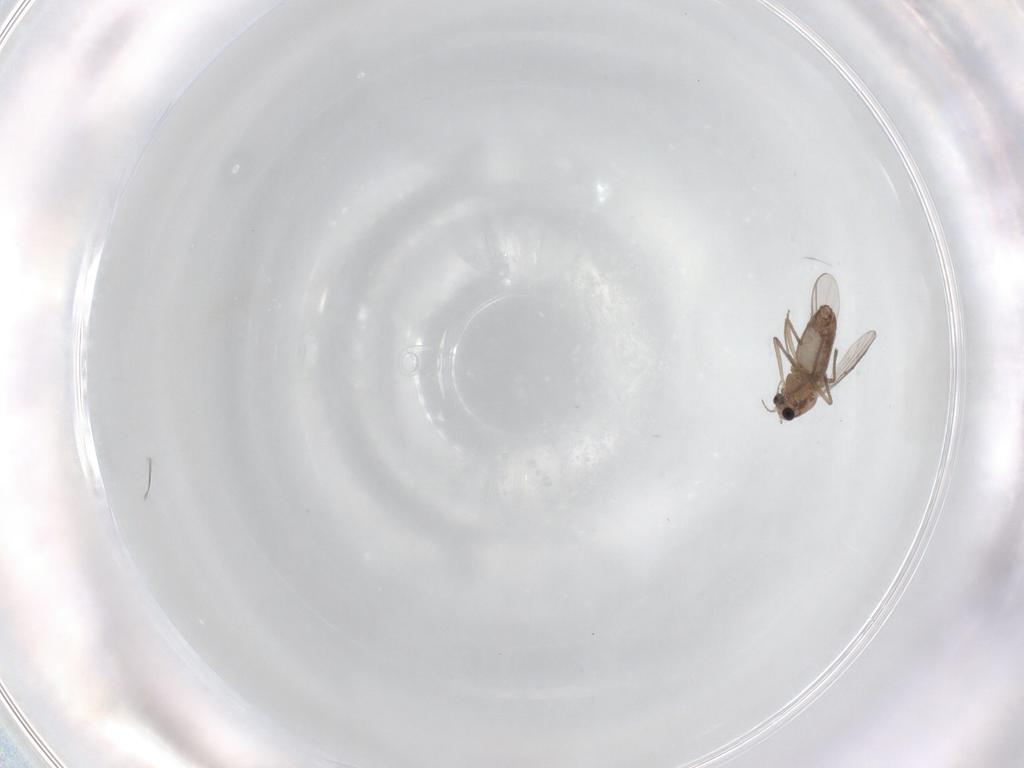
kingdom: Animalia
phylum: Arthropoda
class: Insecta
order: Diptera
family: Chironomidae
